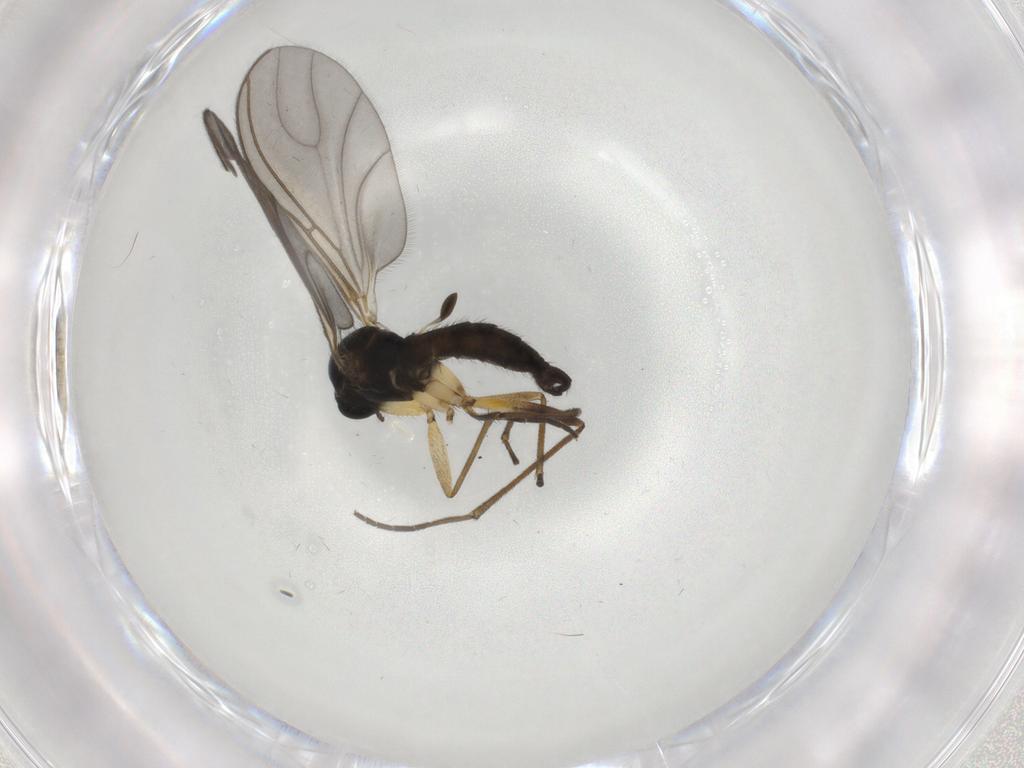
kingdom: Animalia
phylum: Arthropoda
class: Insecta
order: Diptera
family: Sciaridae
